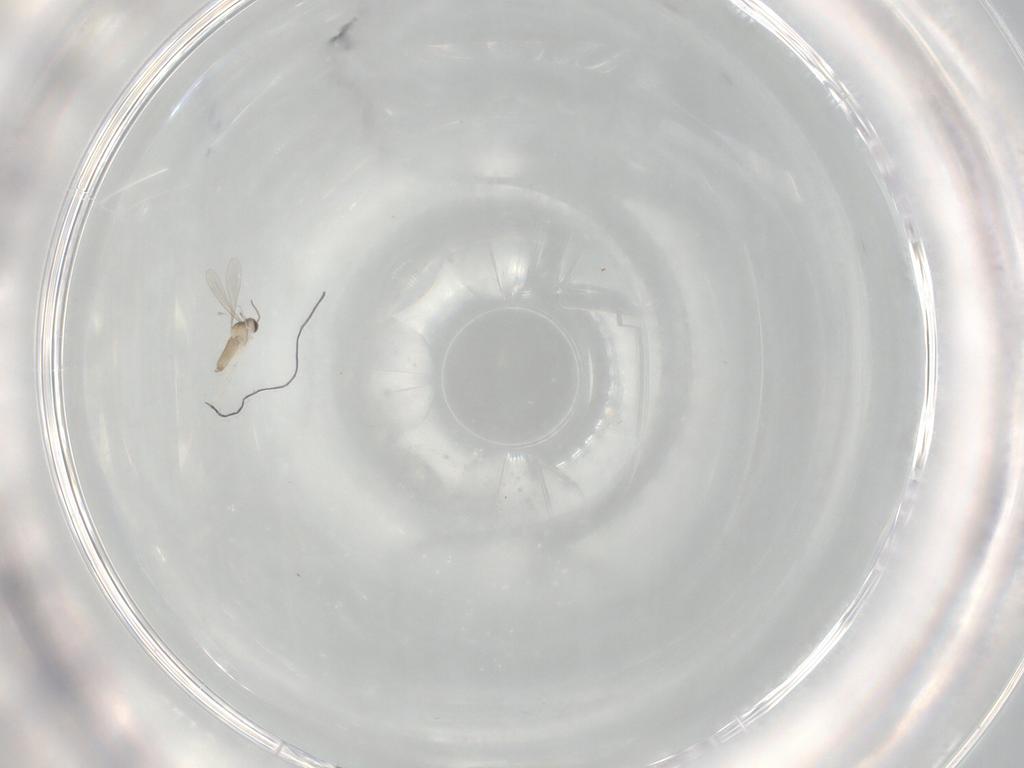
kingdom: Animalia
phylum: Arthropoda
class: Insecta
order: Diptera
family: Sciaridae
